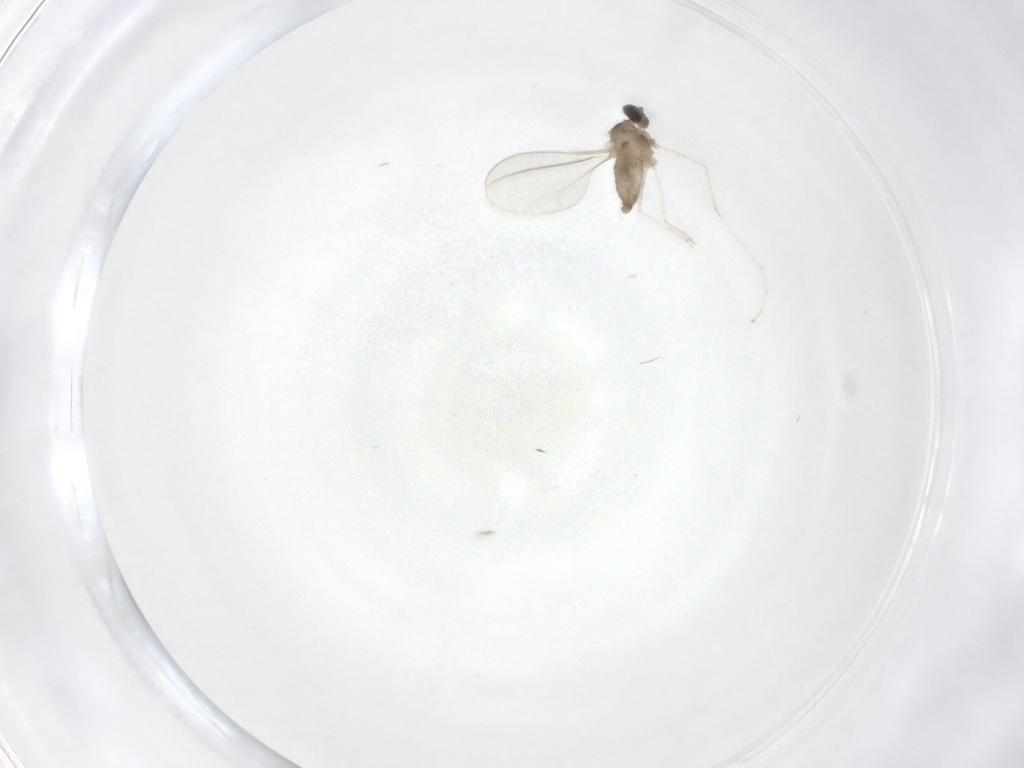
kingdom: Animalia
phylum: Arthropoda
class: Insecta
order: Diptera
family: Cecidomyiidae
